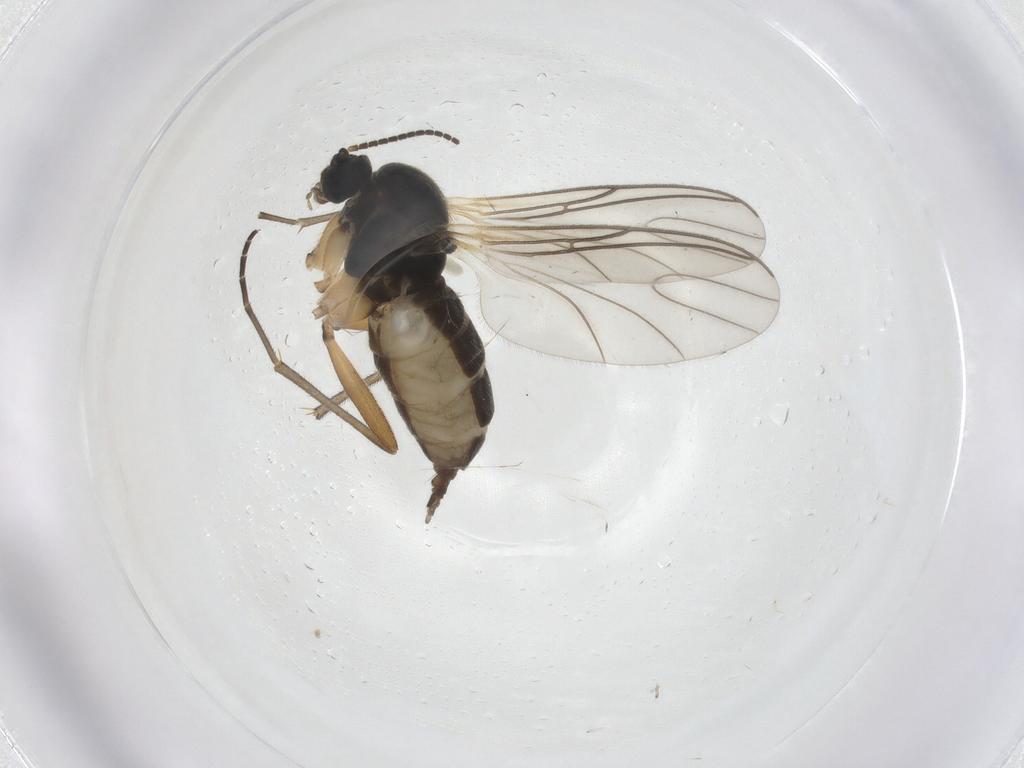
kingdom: Animalia
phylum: Arthropoda
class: Insecta
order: Diptera
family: Sciaridae
